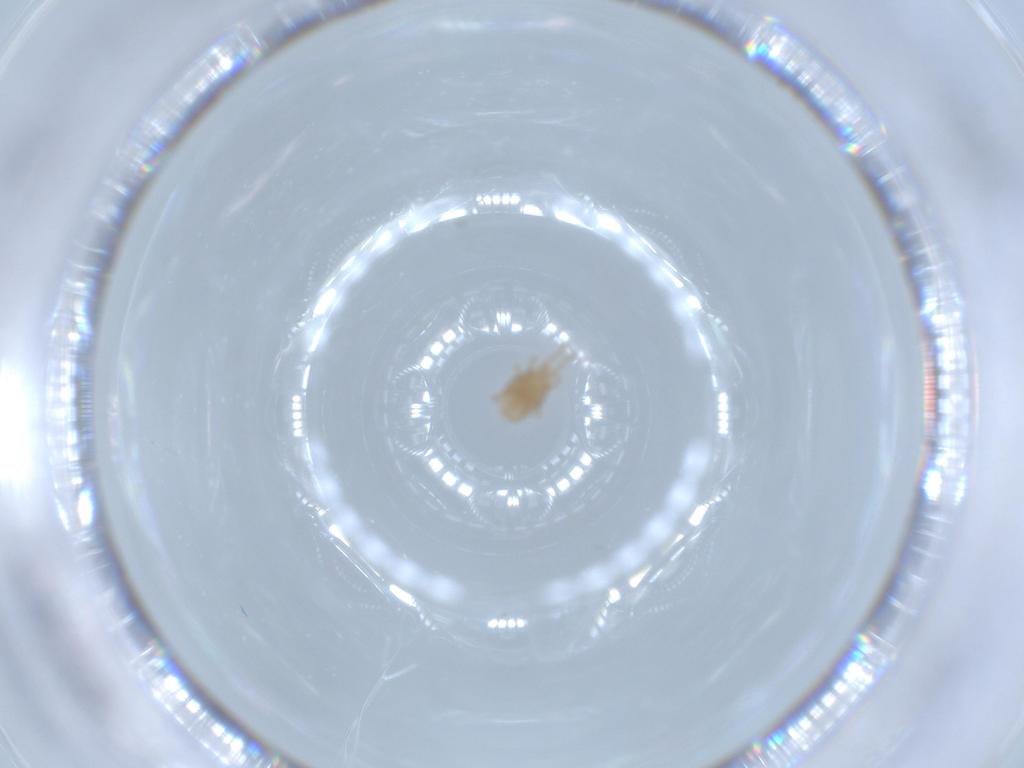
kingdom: Animalia
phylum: Arthropoda
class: Arachnida
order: Mesostigmata
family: Laelapidae
